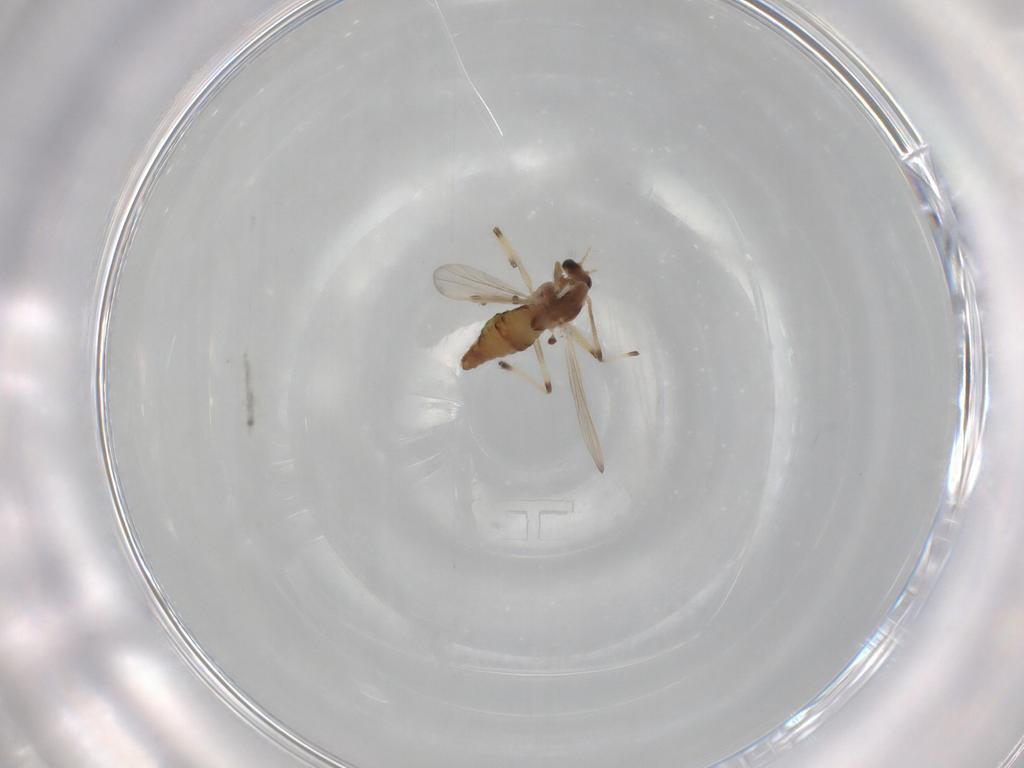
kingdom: Animalia
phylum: Arthropoda
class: Insecta
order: Diptera
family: Chironomidae
